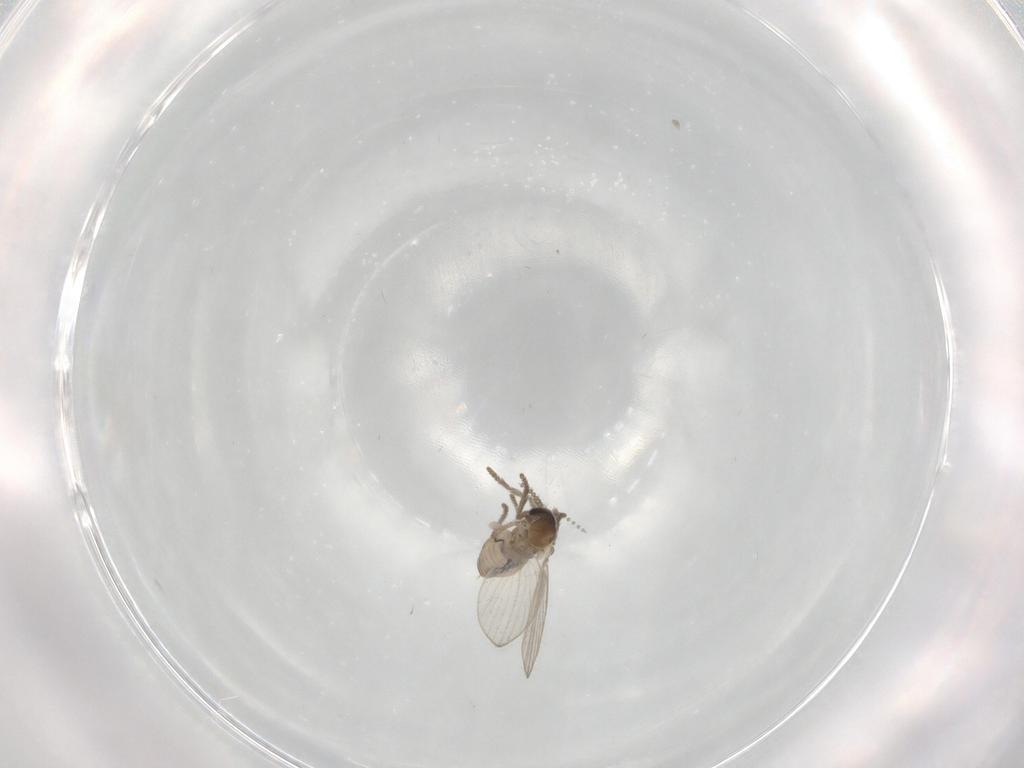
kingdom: Animalia
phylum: Arthropoda
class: Insecta
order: Diptera
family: Psychodidae
